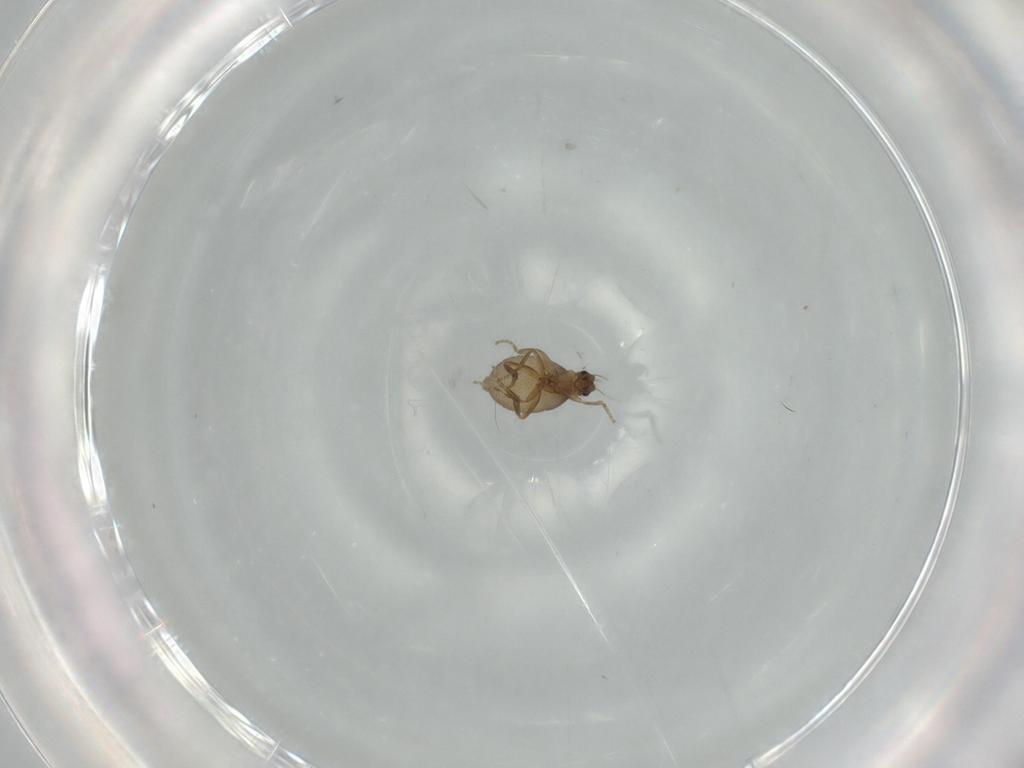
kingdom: Animalia
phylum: Arthropoda
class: Insecta
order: Diptera
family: Phoridae
